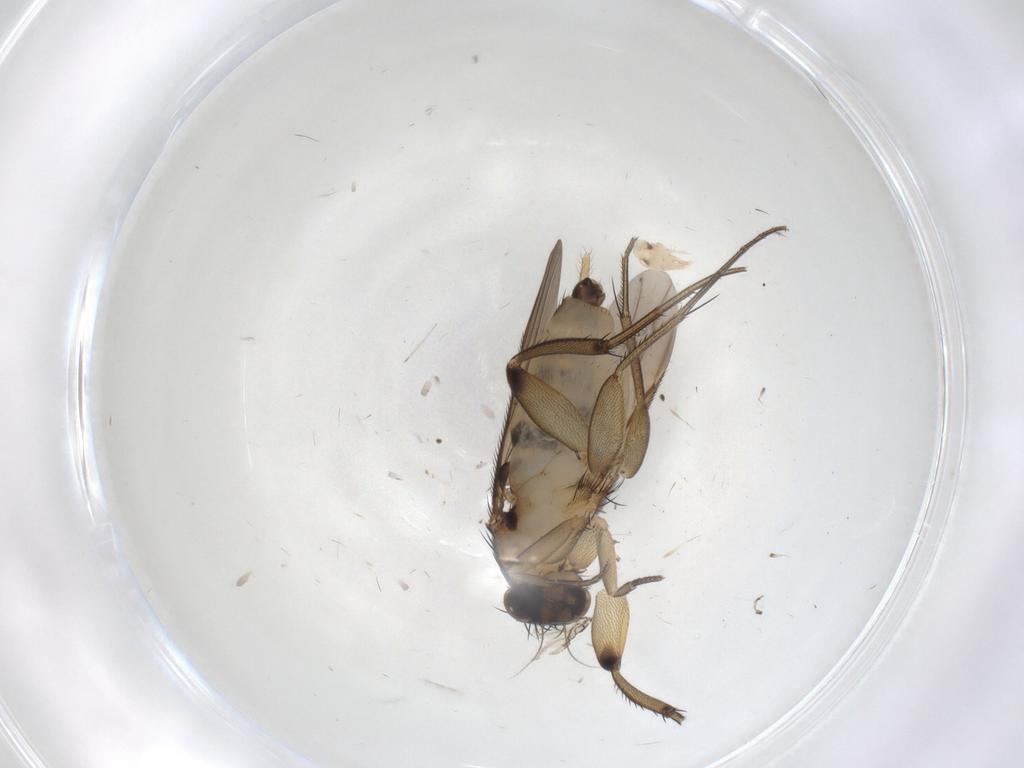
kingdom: Animalia
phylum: Arthropoda
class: Insecta
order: Diptera
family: Phoridae
